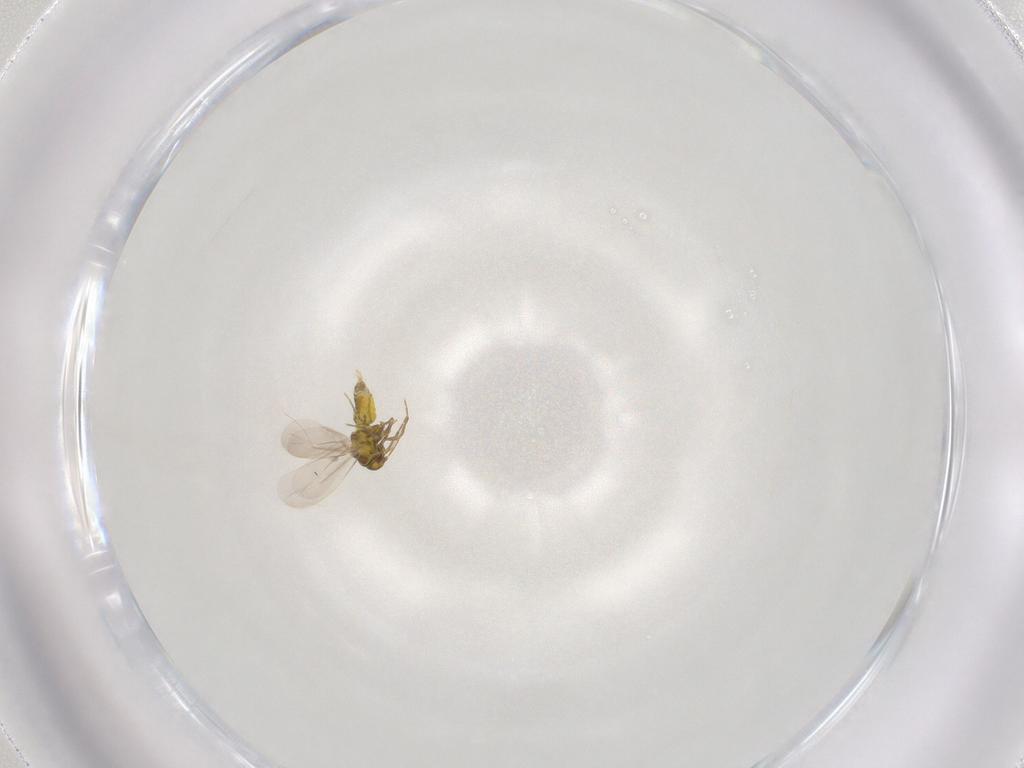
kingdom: Animalia
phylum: Arthropoda
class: Insecta
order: Hemiptera
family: Aleyrodidae
